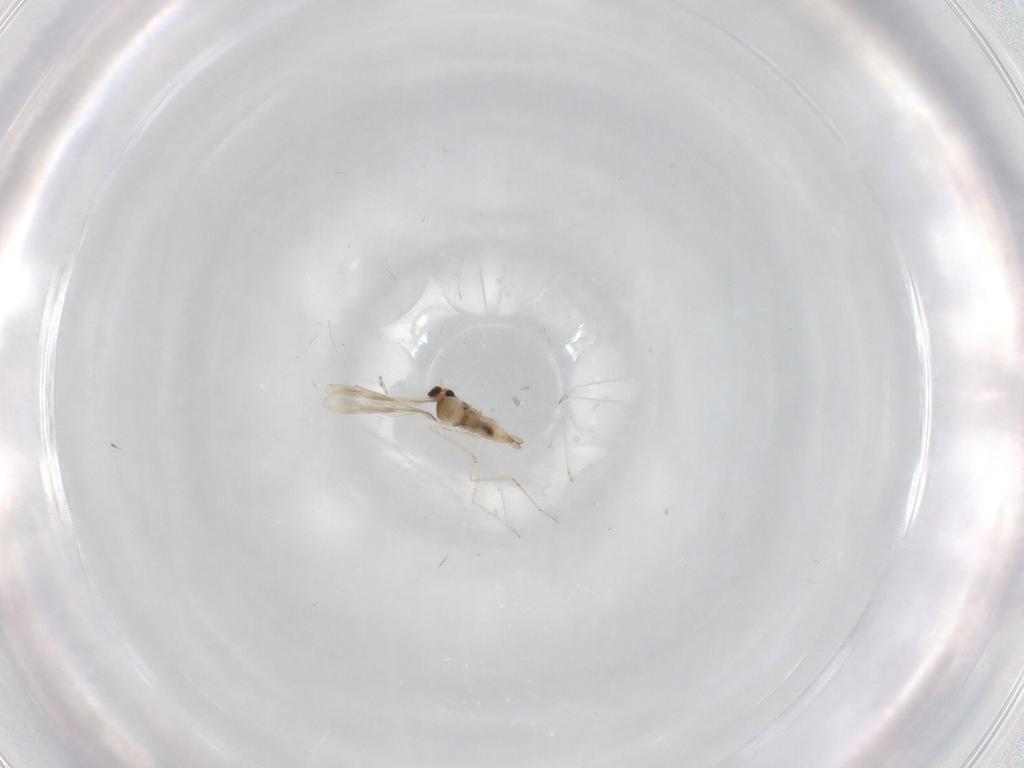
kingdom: Animalia
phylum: Arthropoda
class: Insecta
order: Diptera
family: Cecidomyiidae
